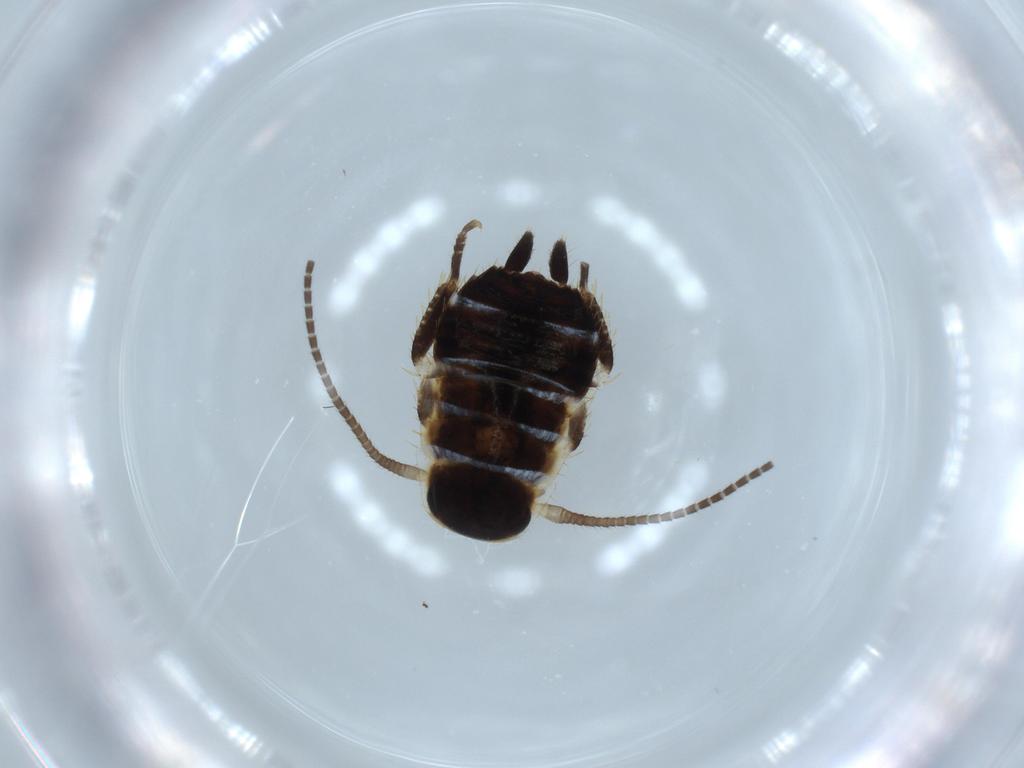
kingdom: Animalia
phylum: Arthropoda
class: Insecta
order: Blattodea
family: Ectobiidae
